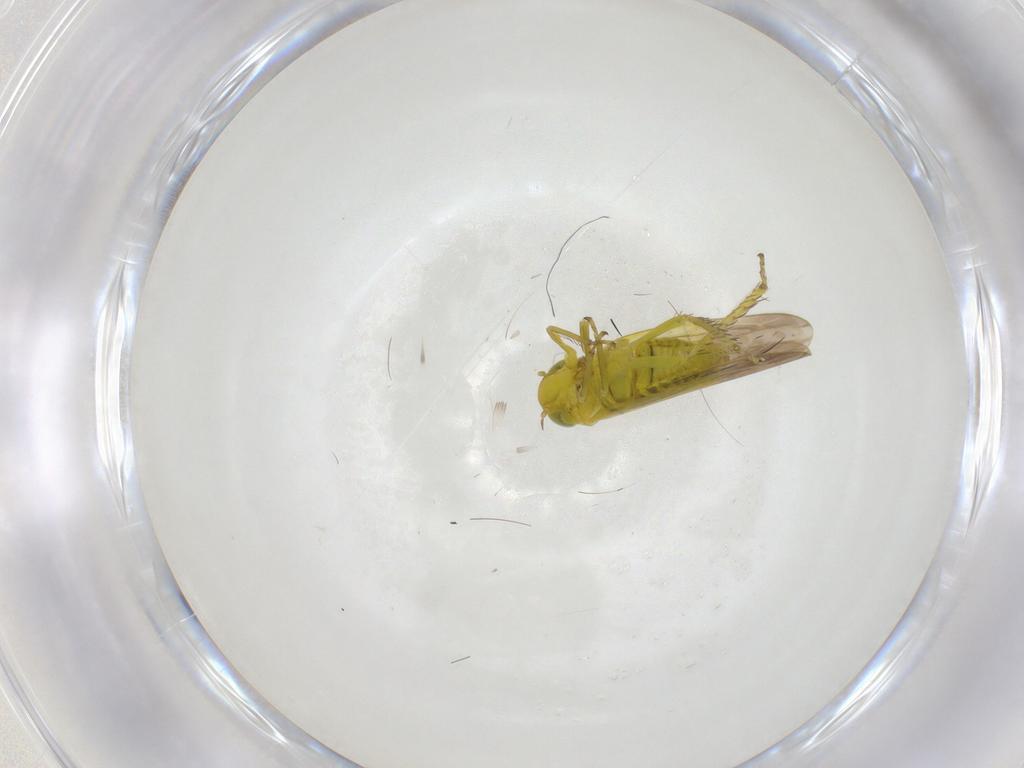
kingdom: Animalia
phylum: Arthropoda
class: Insecta
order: Hemiptera
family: Cicadellidae
